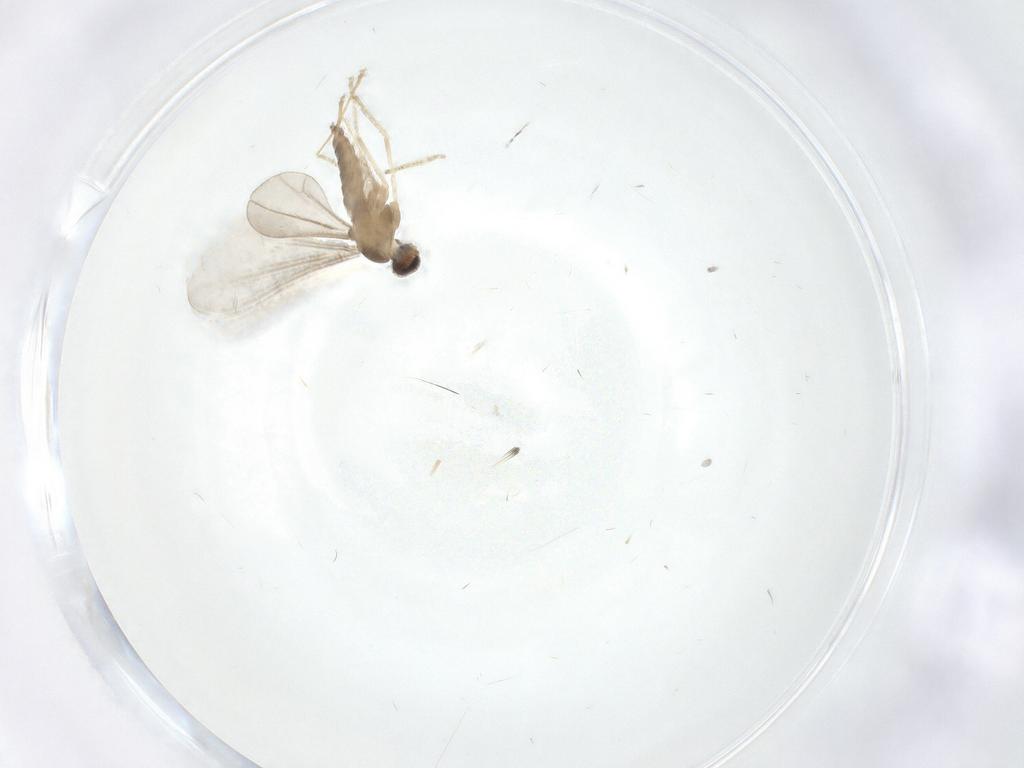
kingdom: Animalia
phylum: Arthropoda
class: Insecta
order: Diptera
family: Cecidomyiidae
